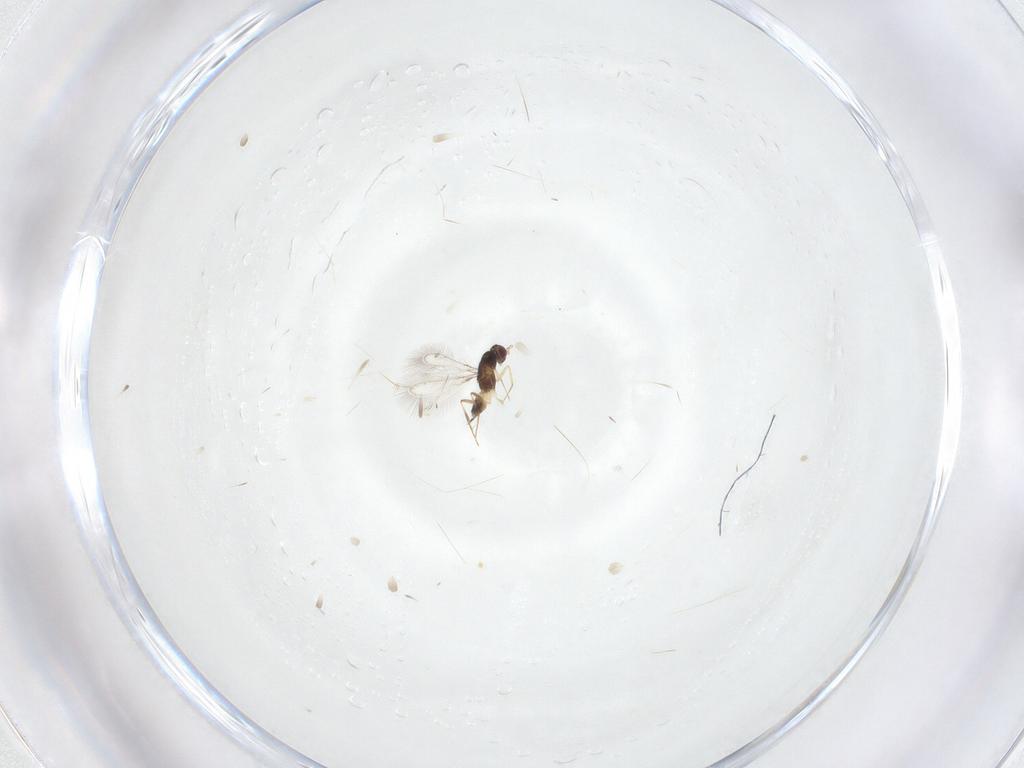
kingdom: Animalia
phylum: Arthropoda
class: Insecta
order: Hymenoptera
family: Mymaridae
